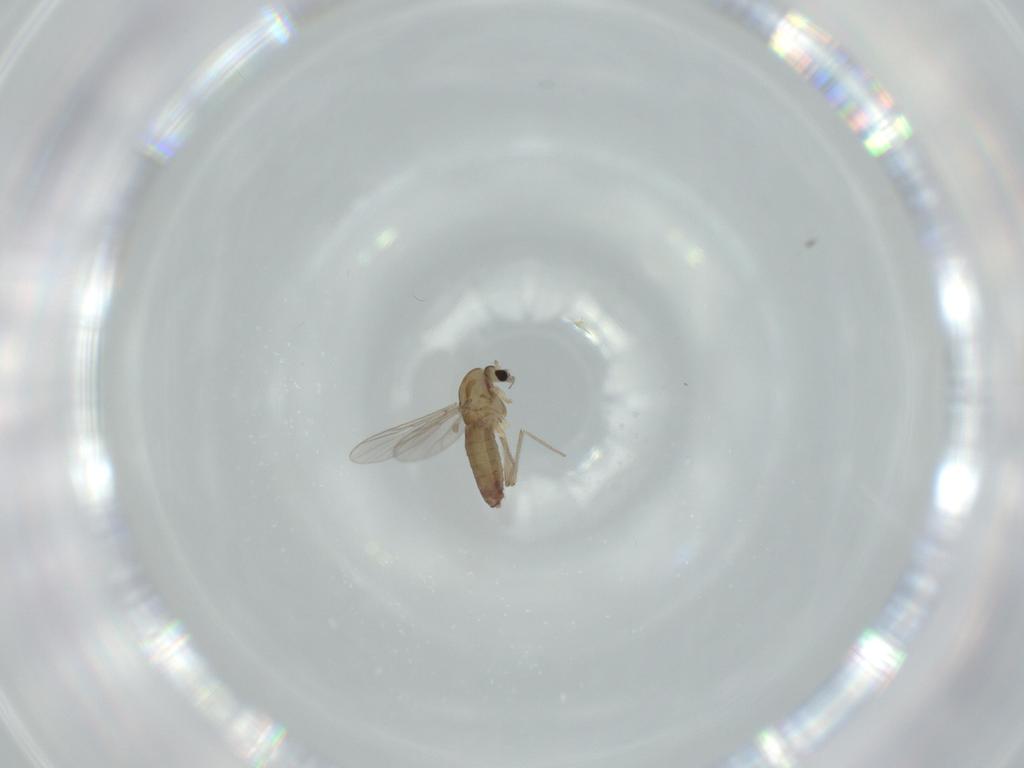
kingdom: Animalia
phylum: Arthropoda
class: Insecta
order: Diptera
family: Chironomidae
